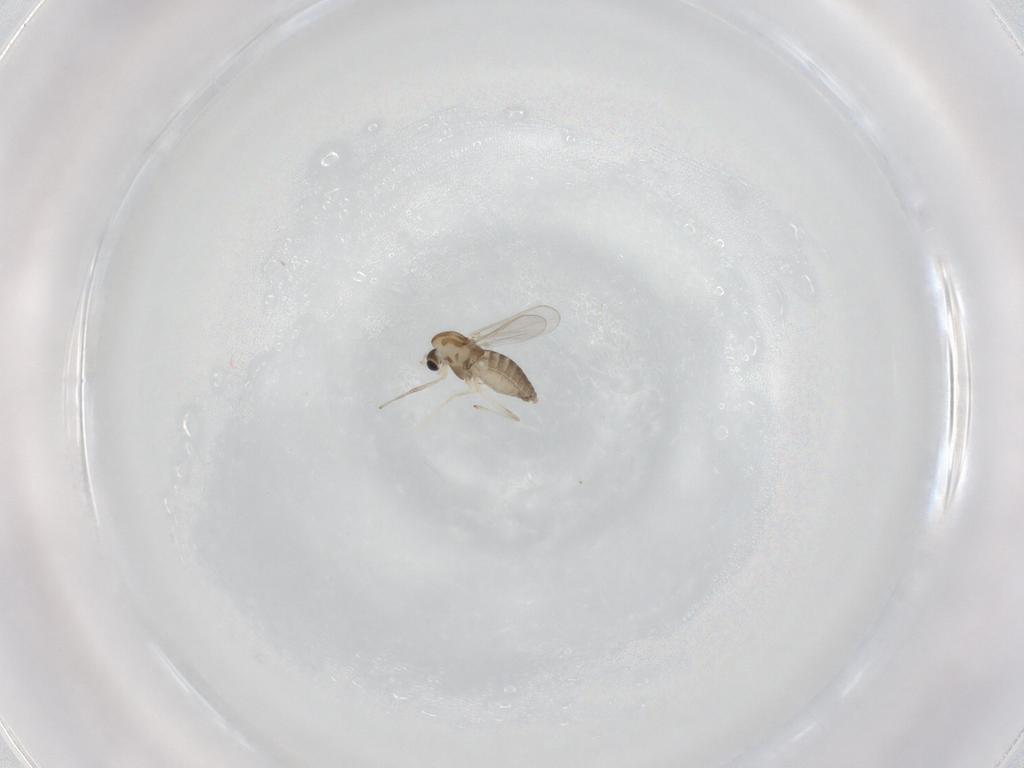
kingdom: Animalia
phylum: Arthropoda
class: Insecta
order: Diptera
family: Chironomidae
